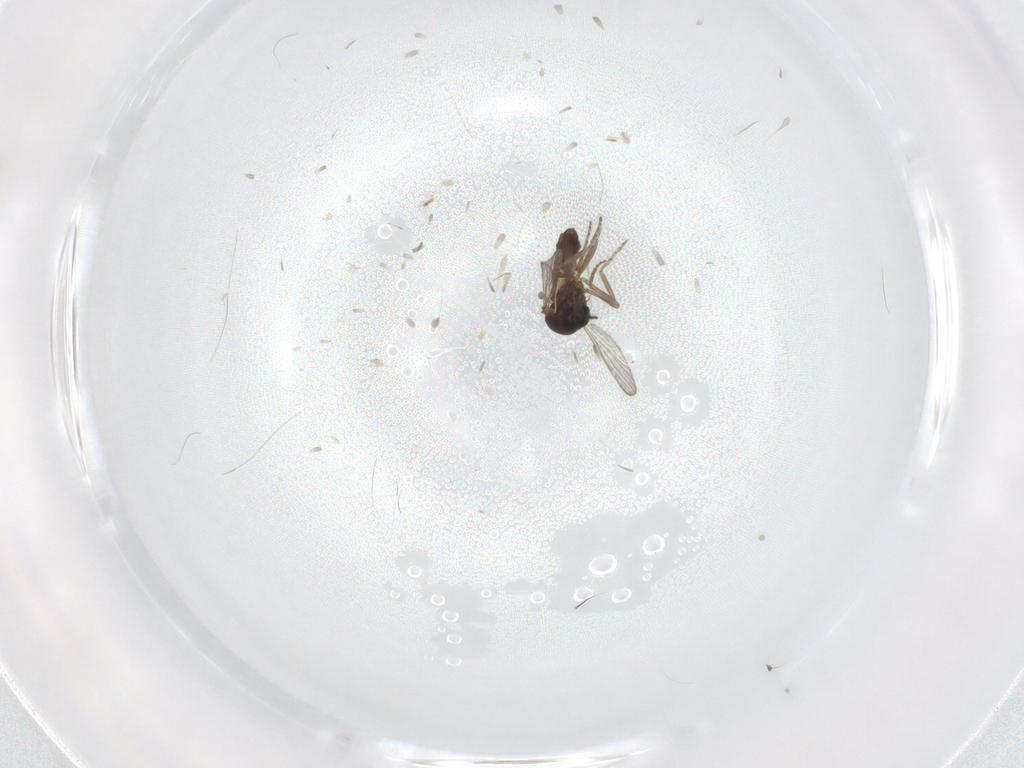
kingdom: Animalia
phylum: Arthropoda
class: Insecta
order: Diptera
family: Ceratopogonidae
